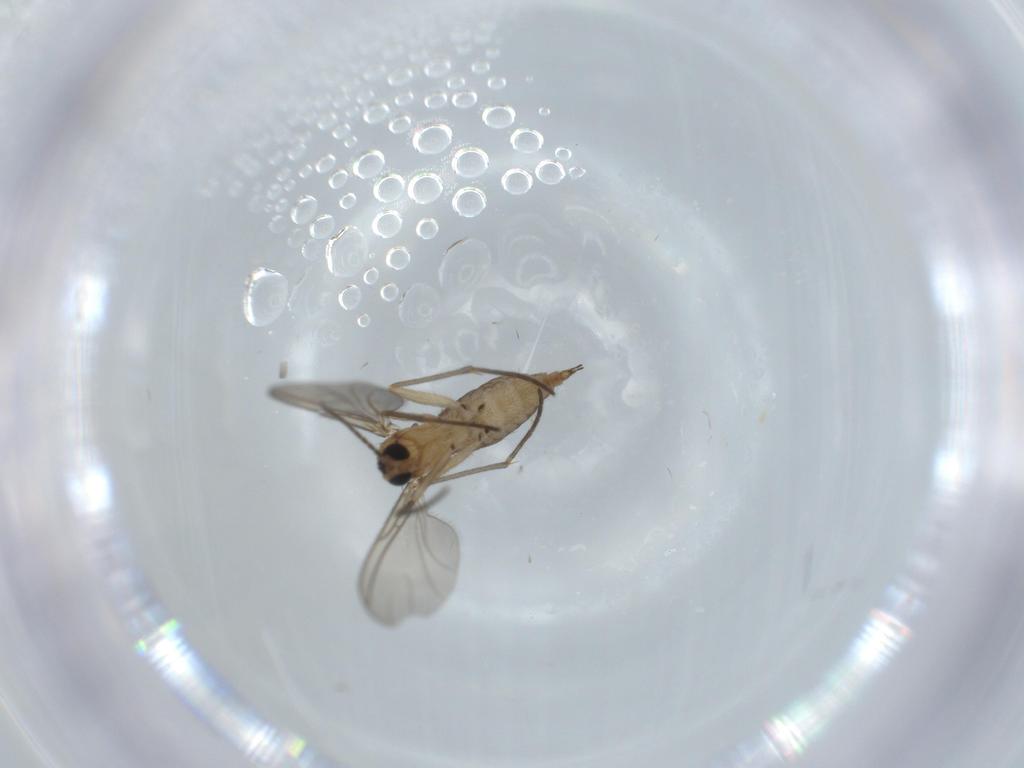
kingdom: Animalia
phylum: Arthropoda
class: Insecta
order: Diptera
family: Sciaridae
